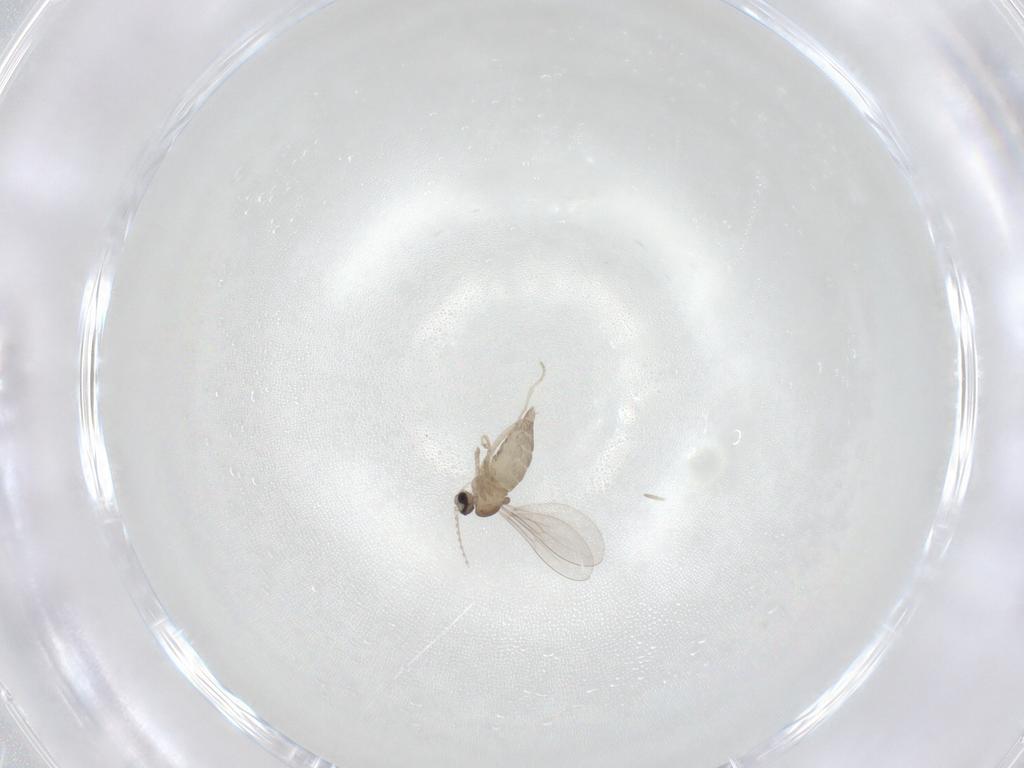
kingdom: Animalia
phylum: Arthropoda
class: Insecta
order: Diptera
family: Cecidomyiidae
